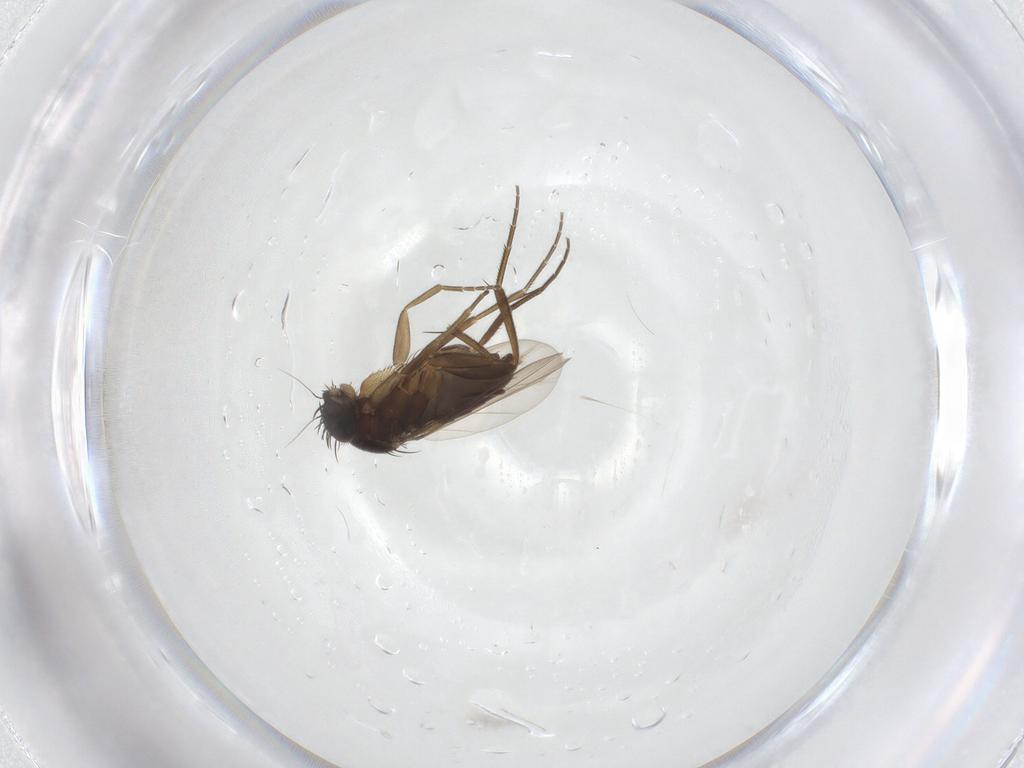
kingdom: Animalia
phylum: Arthropoda
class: Insecta
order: Diptera
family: Phoridae
